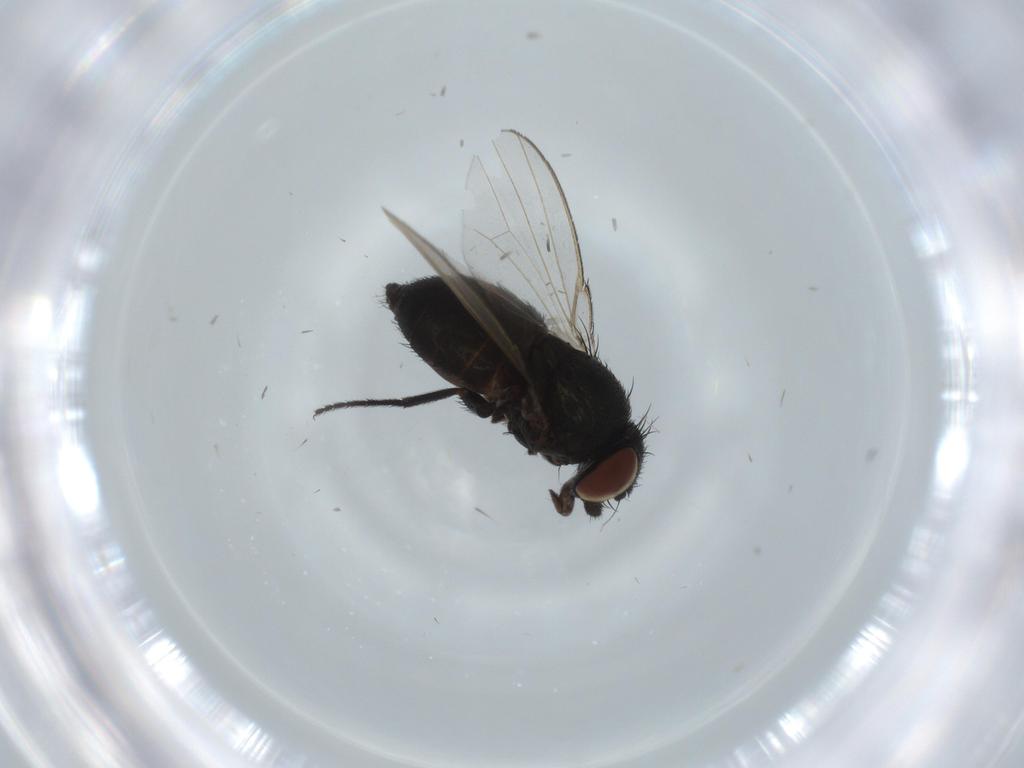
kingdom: Animalia
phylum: Arthropoda
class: Insecta
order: Diptera
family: Milichiidae
